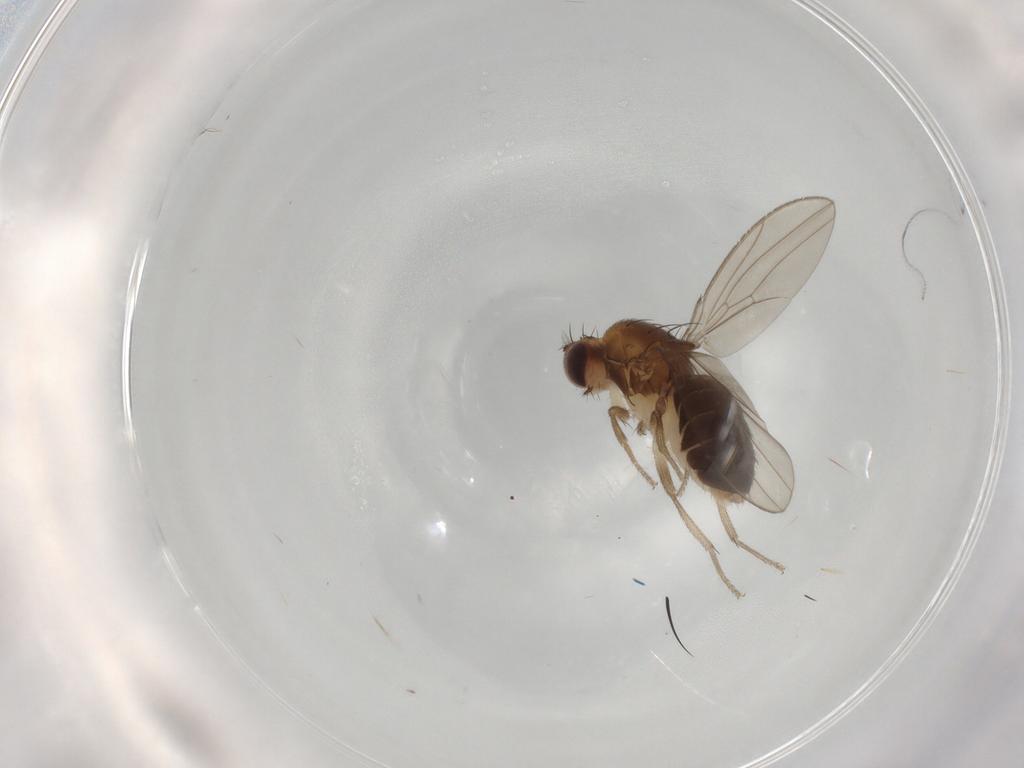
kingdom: Animalia
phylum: Arthropoda
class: Insecta
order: Diptera
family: Drosophilidae
